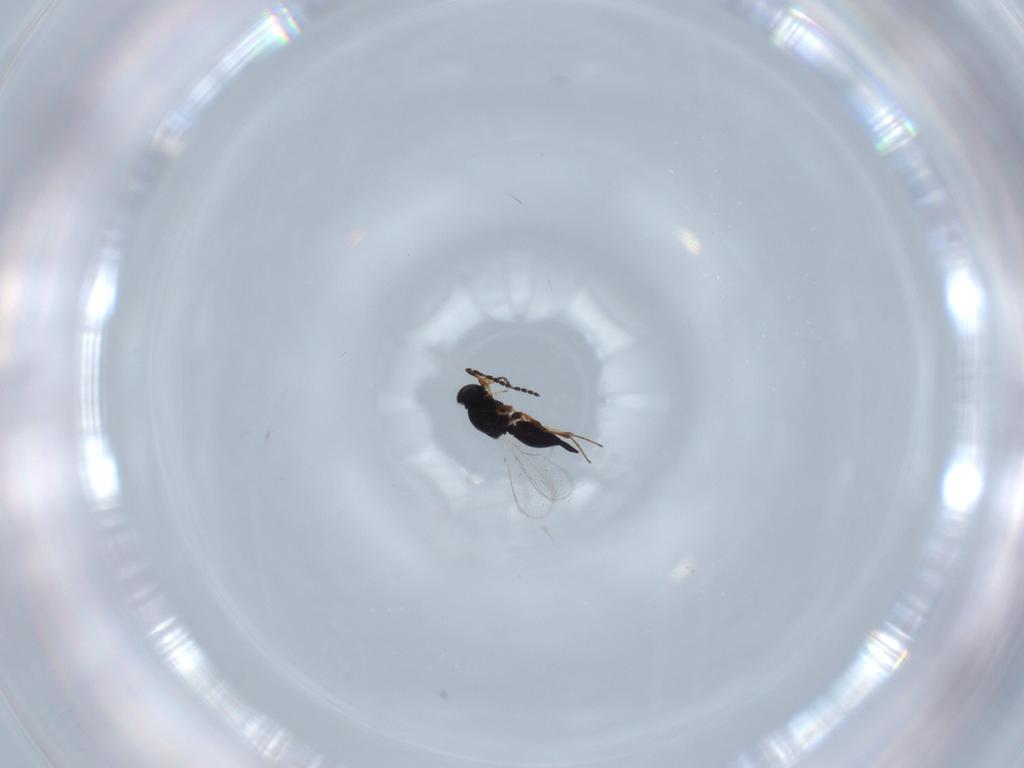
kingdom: Animalia
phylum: Arthropoda
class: Insecta
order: Hymenoptera
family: Platygastridae
